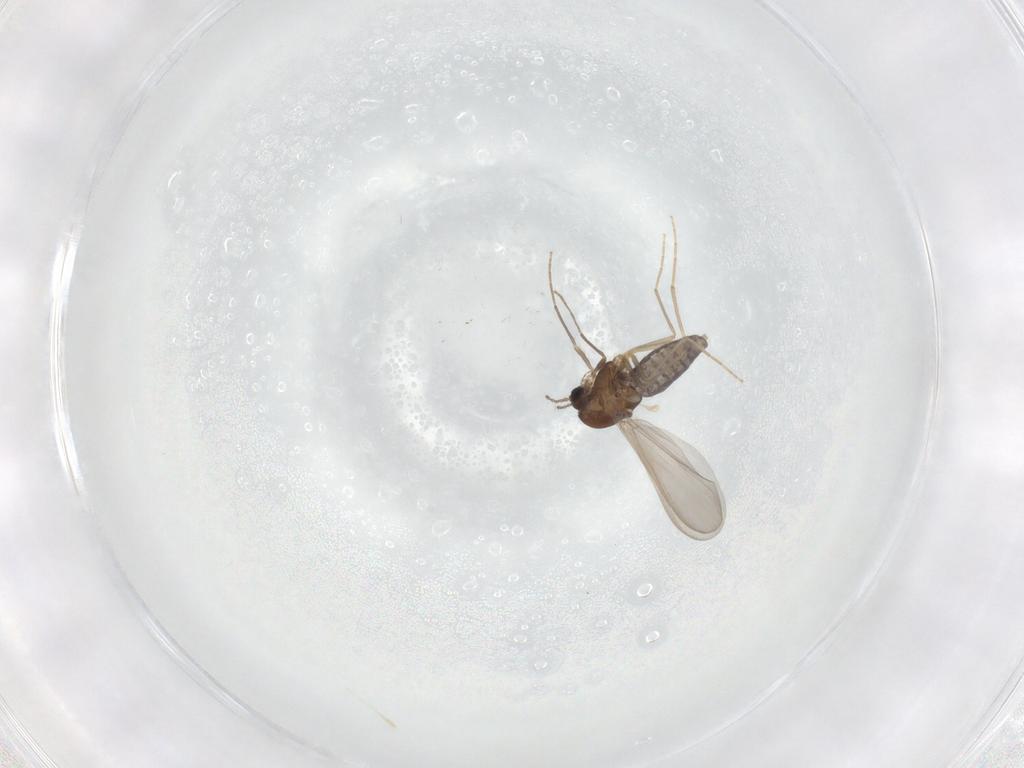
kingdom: Animalia
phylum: Arthropoda
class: Insecta
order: Diptera
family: Chironomidae
